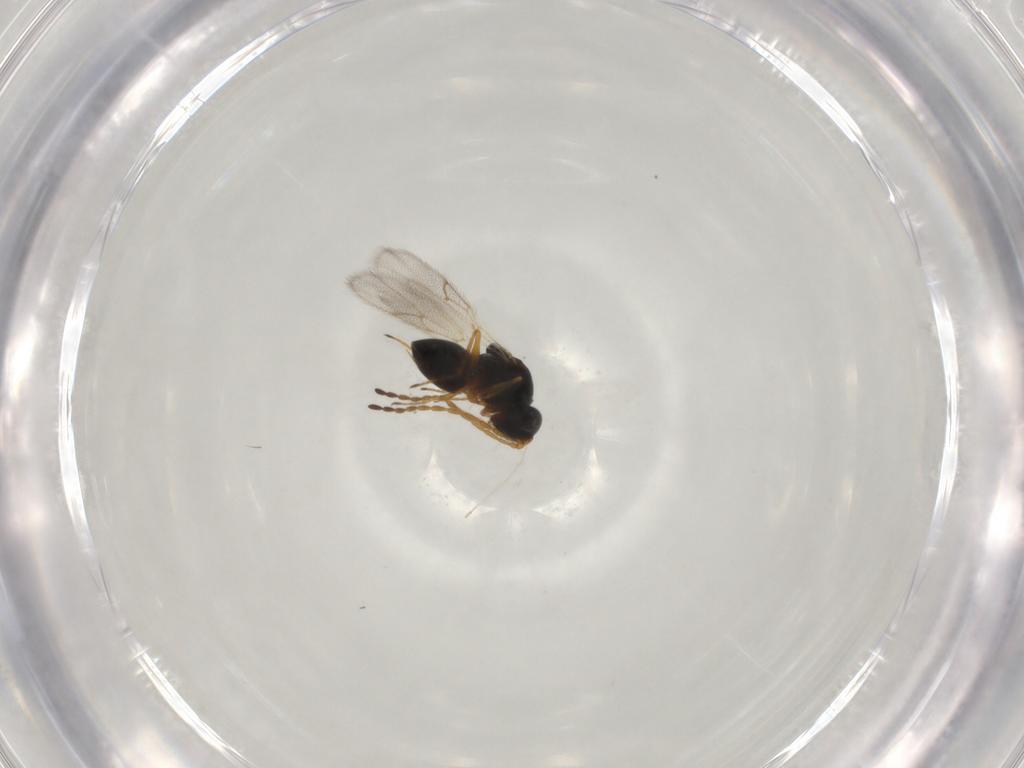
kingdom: Animalia
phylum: Arthropoda
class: Insecta
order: Hymenoptera
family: Figitidae
